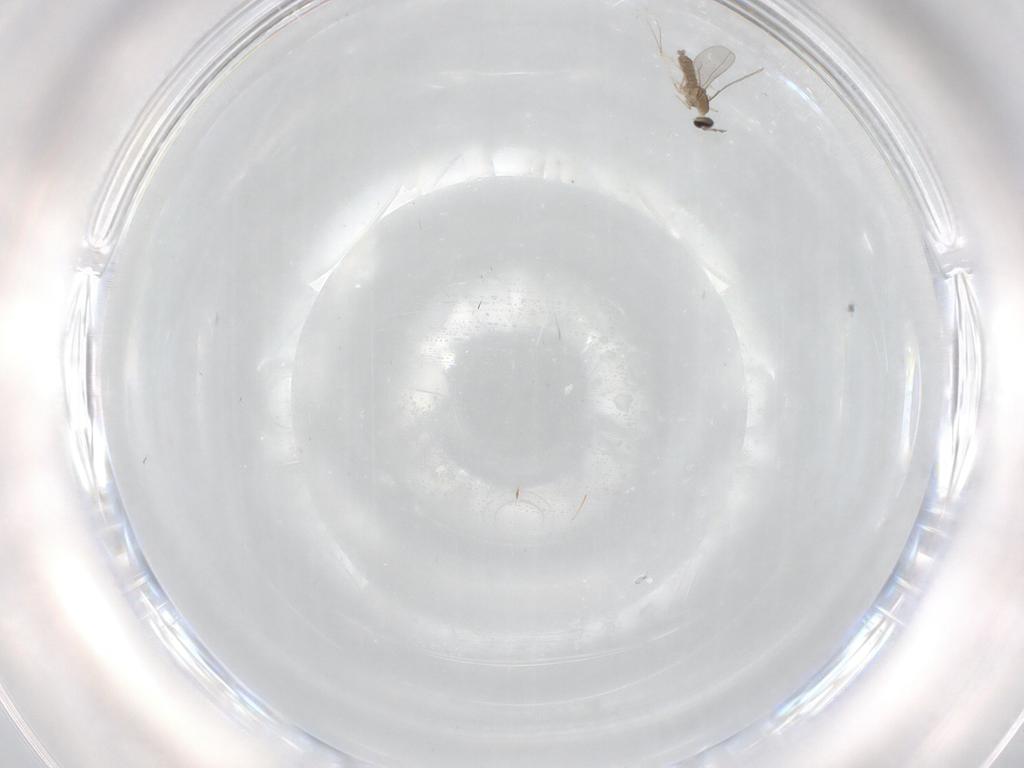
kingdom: Animalia
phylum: Arthropoda
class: Insecta
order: Diptera
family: Cecidomyiidae
